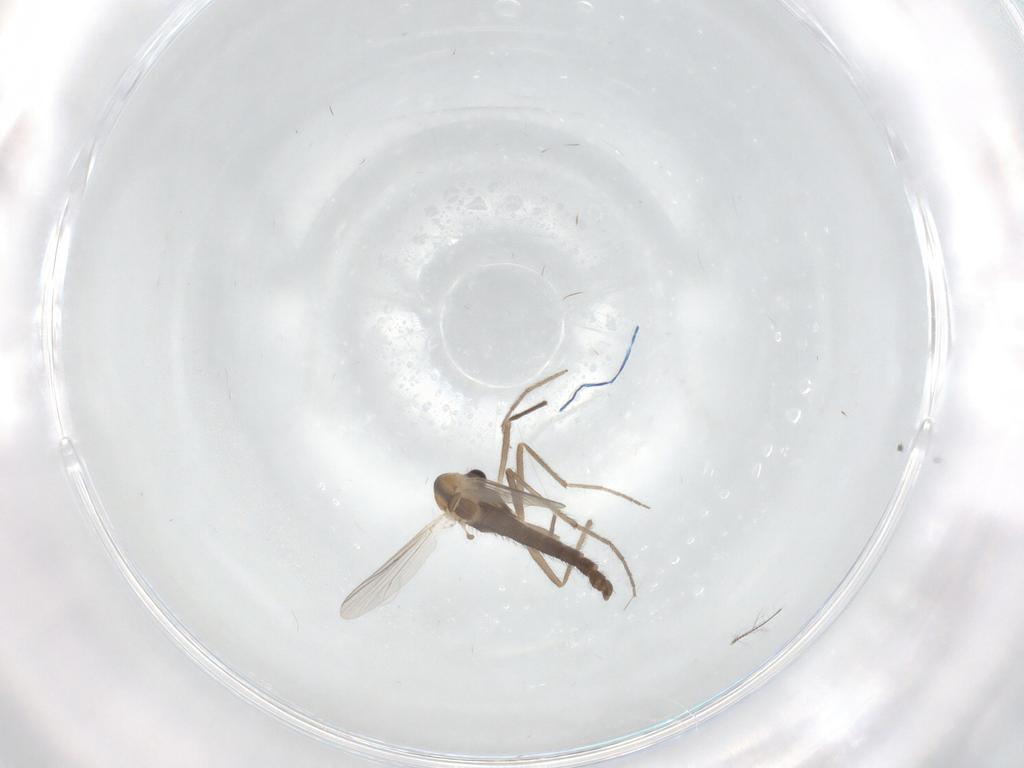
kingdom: Animalia
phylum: Arthropoda
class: Insecta
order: Diptera
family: Chironomidae
